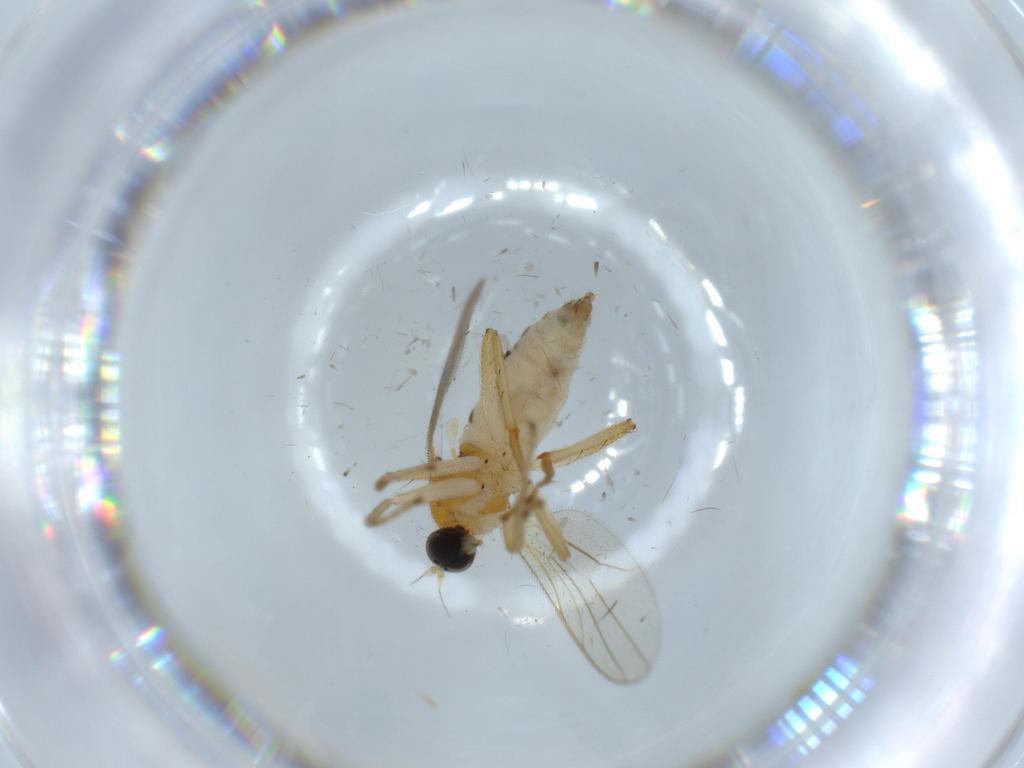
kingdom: Animalia
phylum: Arthropoda
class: Insecta
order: Diptera
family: Hybotidae
